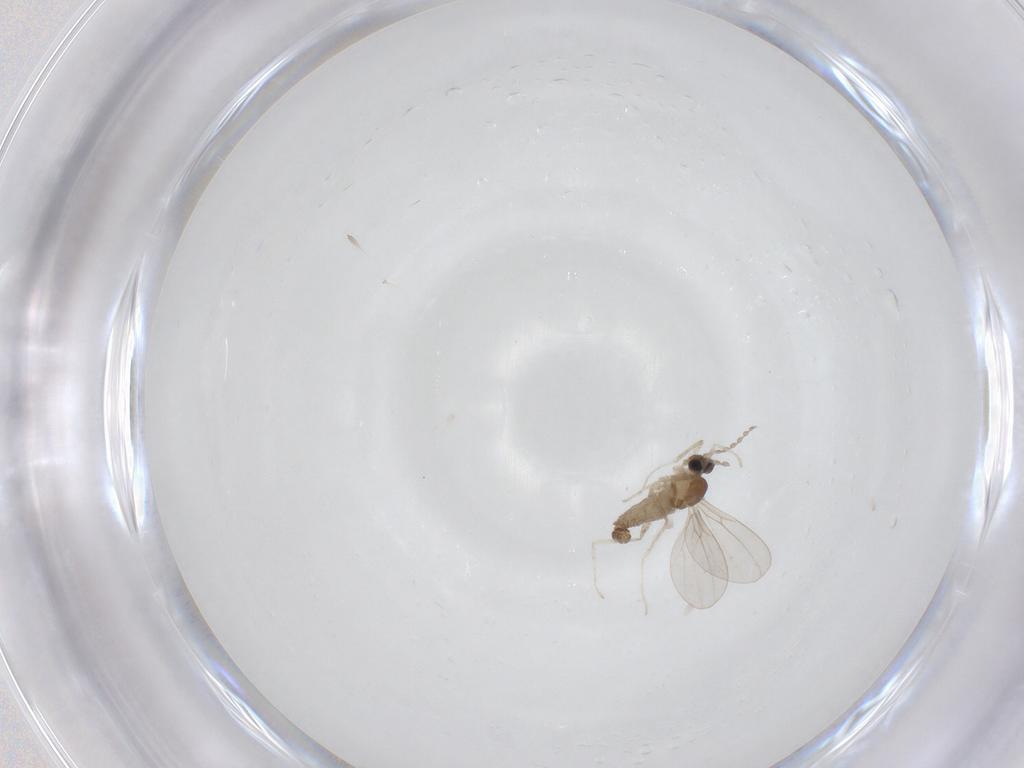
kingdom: Animalia
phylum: Arthropoda
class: Insecta
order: Diptera
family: Cecidomyiidae
